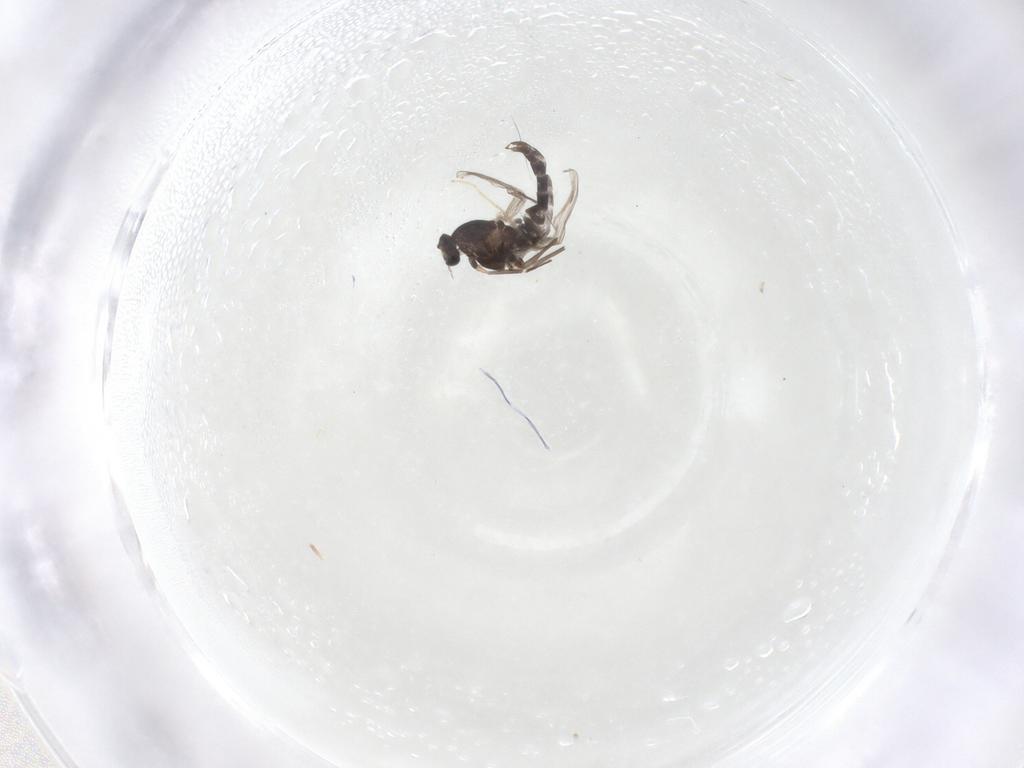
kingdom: Animalia
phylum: Arthropoda
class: Insecta
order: Diptera
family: Chironomidae
